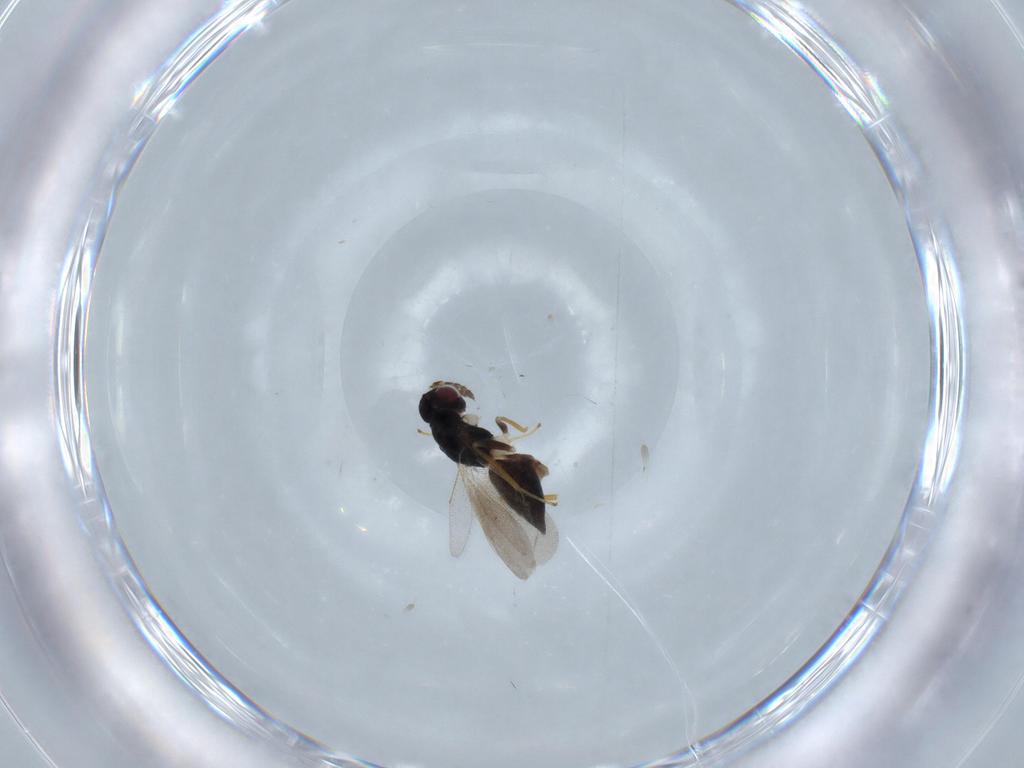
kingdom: Animalia
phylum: Arthropoda
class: Insecta
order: Hymenoptera
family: Eulophidae
